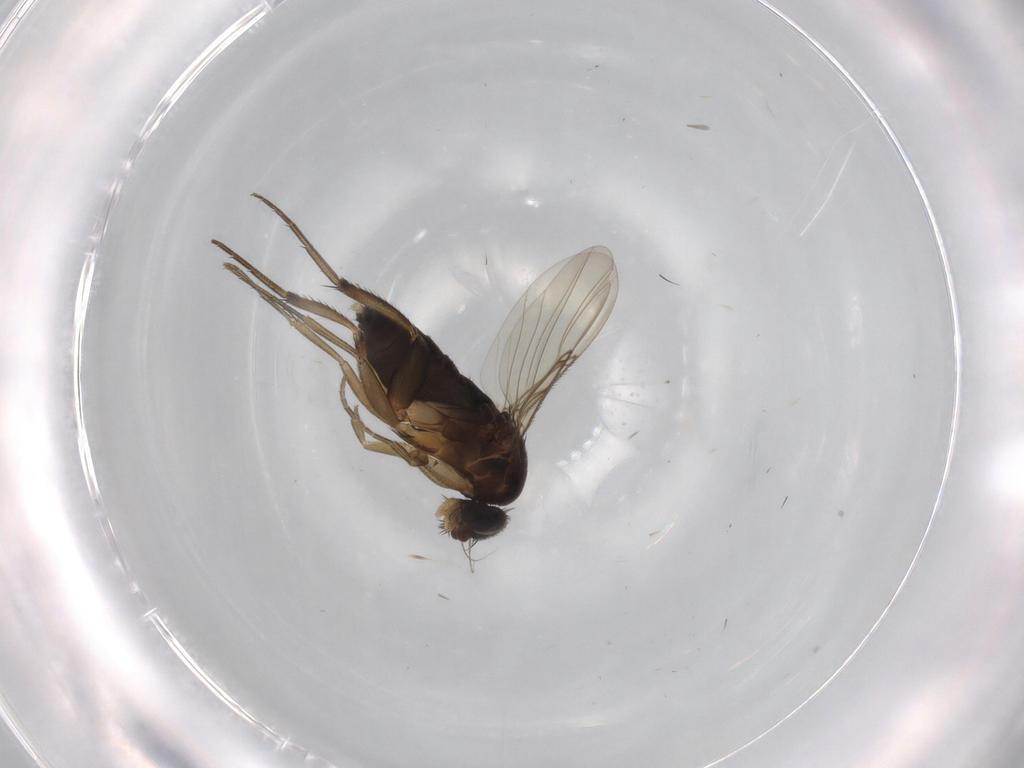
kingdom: Animalia
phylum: Arthropoda
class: Insecta
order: Diptera
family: Phoridae
